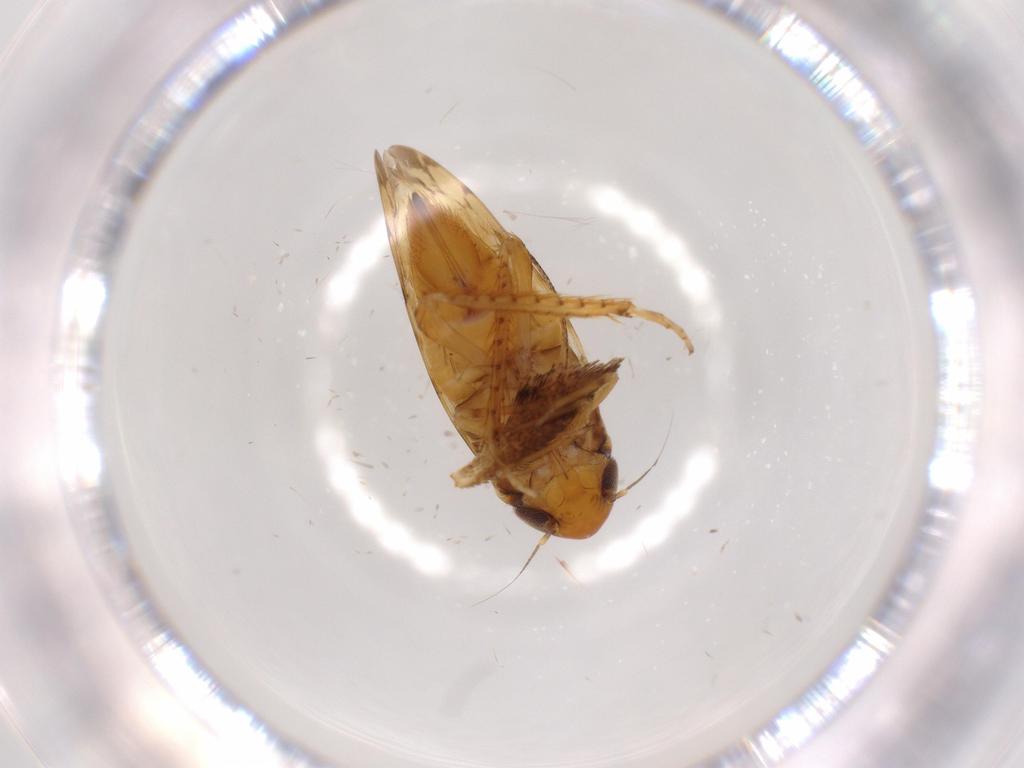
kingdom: Animalia
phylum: Arthropoda
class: Insecta
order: Hemiptera
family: Cicadellidae
